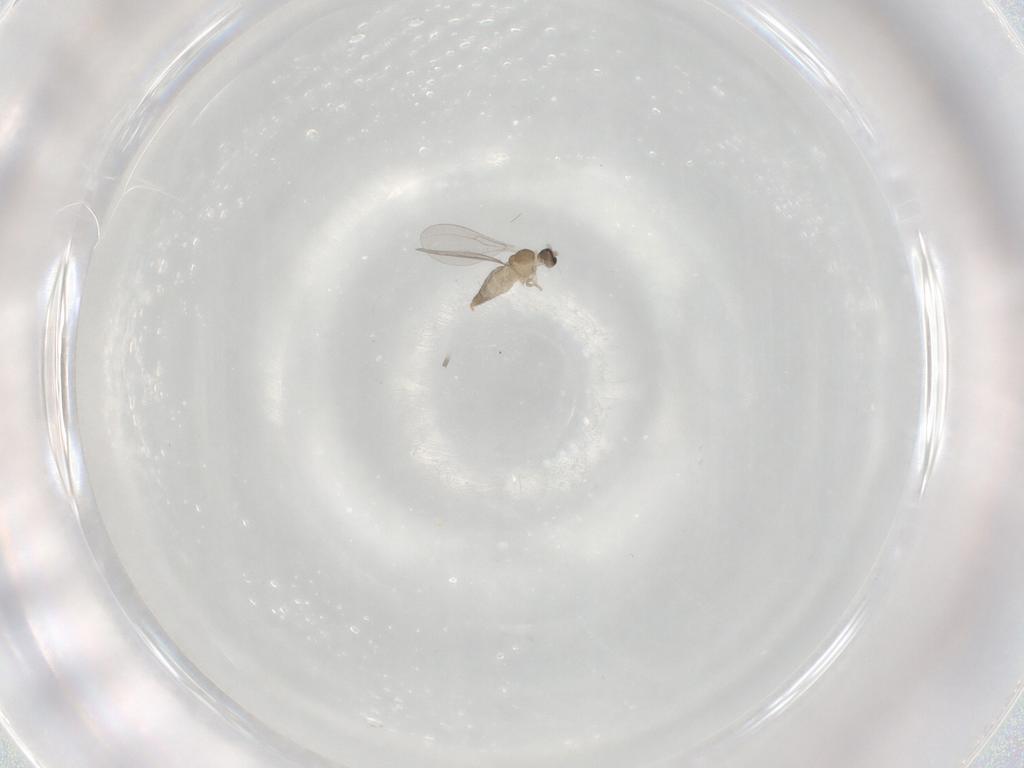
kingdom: Animalia
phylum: Arthropoda
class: Insecta
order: Diptera
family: Cecidomyiidae
